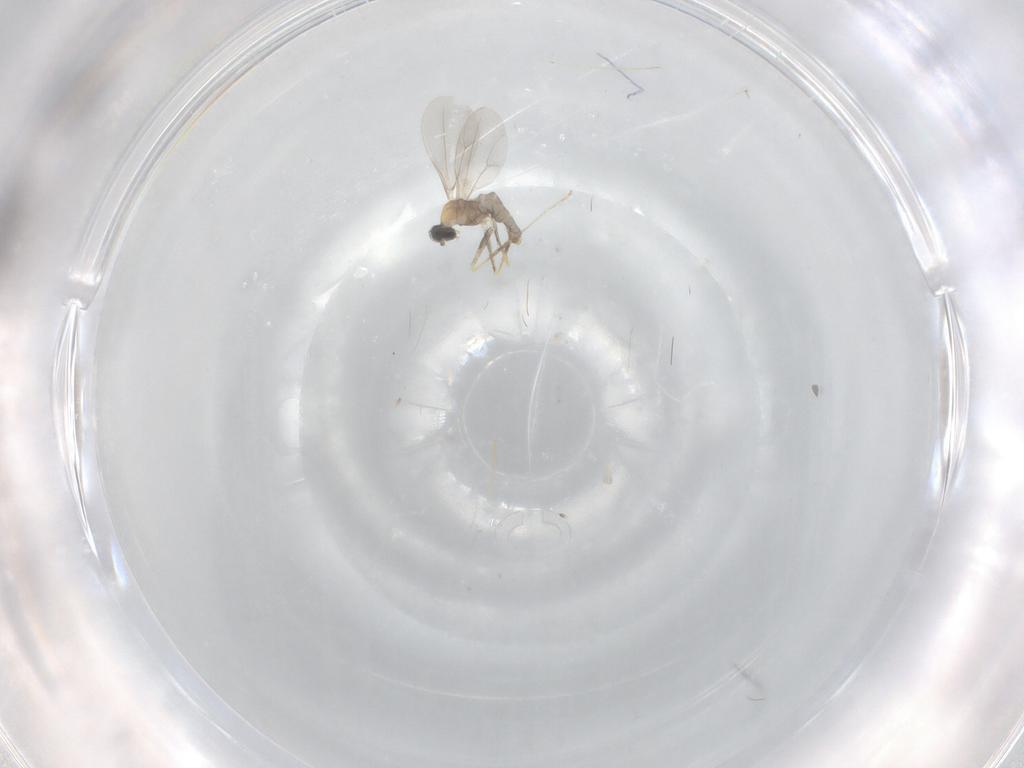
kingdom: Animalia
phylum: Arthropoda
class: Insecta
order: Diptera
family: Cecidomyiidae
